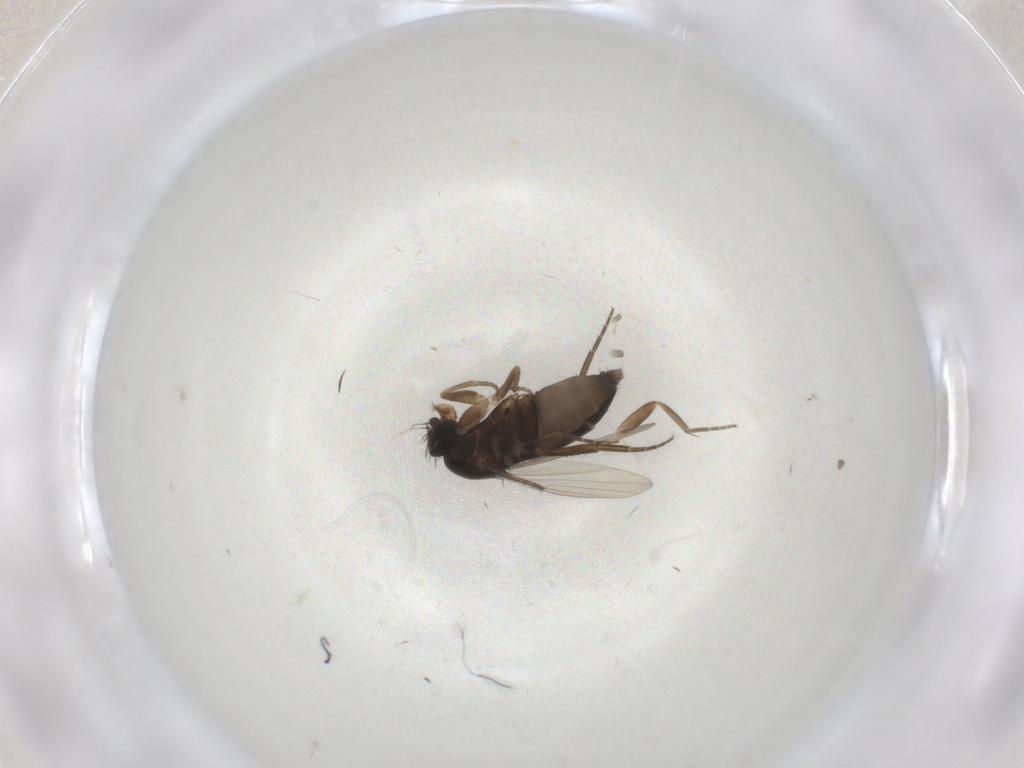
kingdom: Animalia
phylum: Arthropoda
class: Insecta
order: Diptera
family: Phoridae
